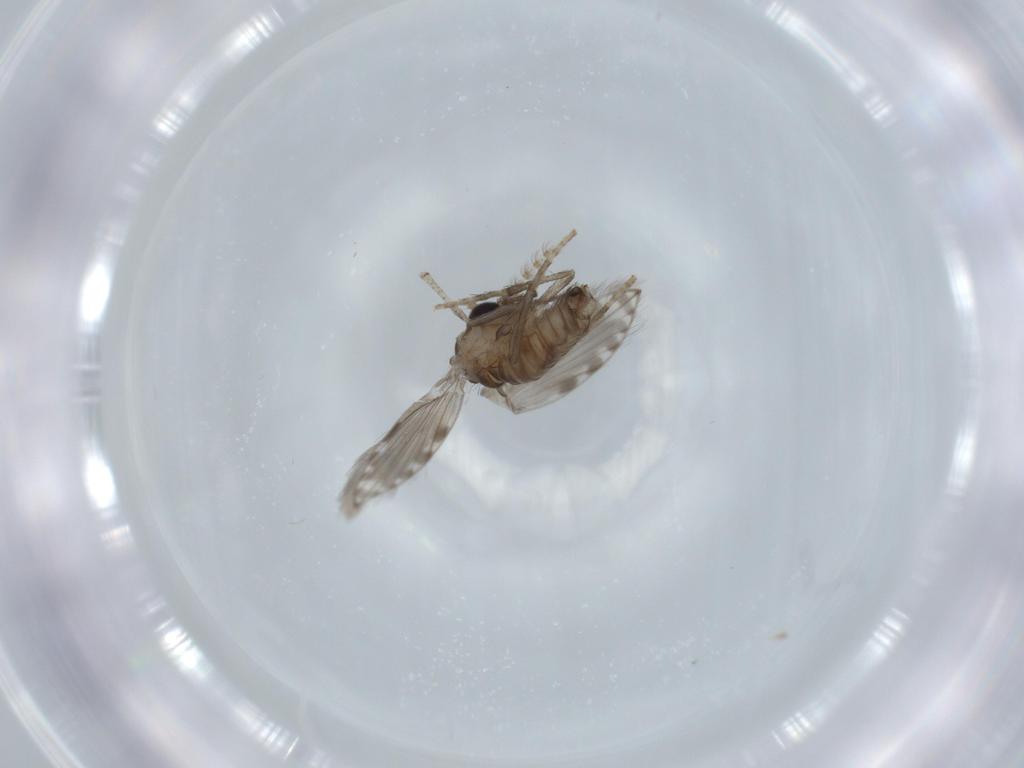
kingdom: Animalia
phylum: Arthropoda
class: Insecta
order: Diptera
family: Psychodidae
